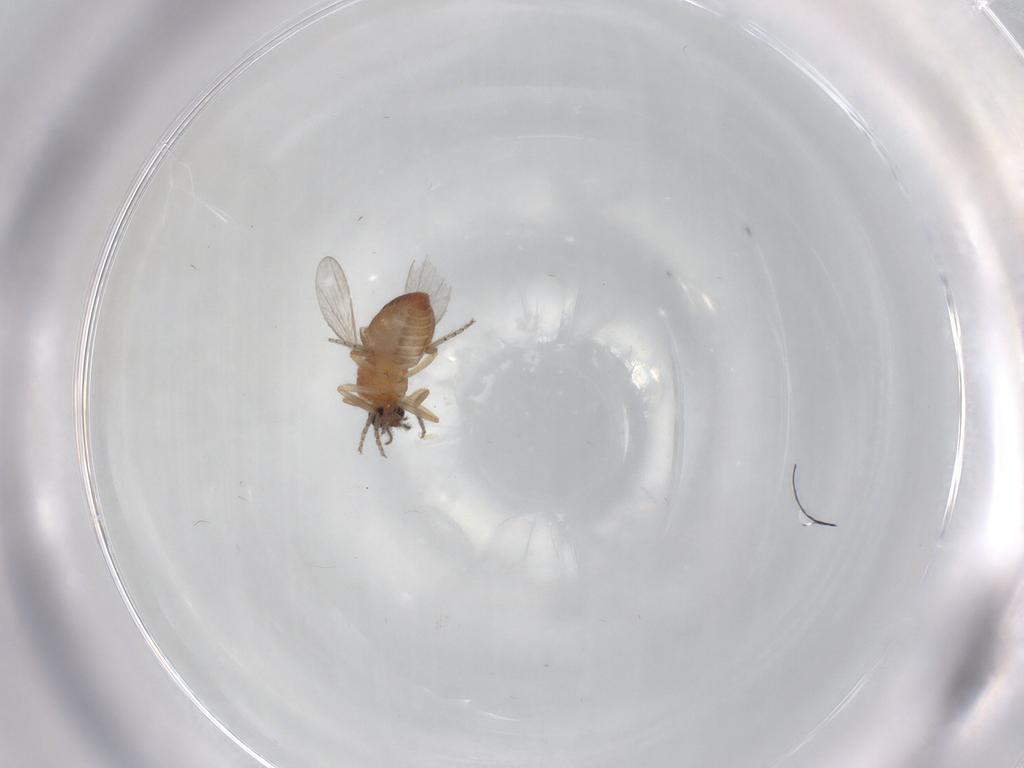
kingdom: Animalia
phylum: Arthropoda
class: Insecta
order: Diptera
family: Ceratopogonidae
